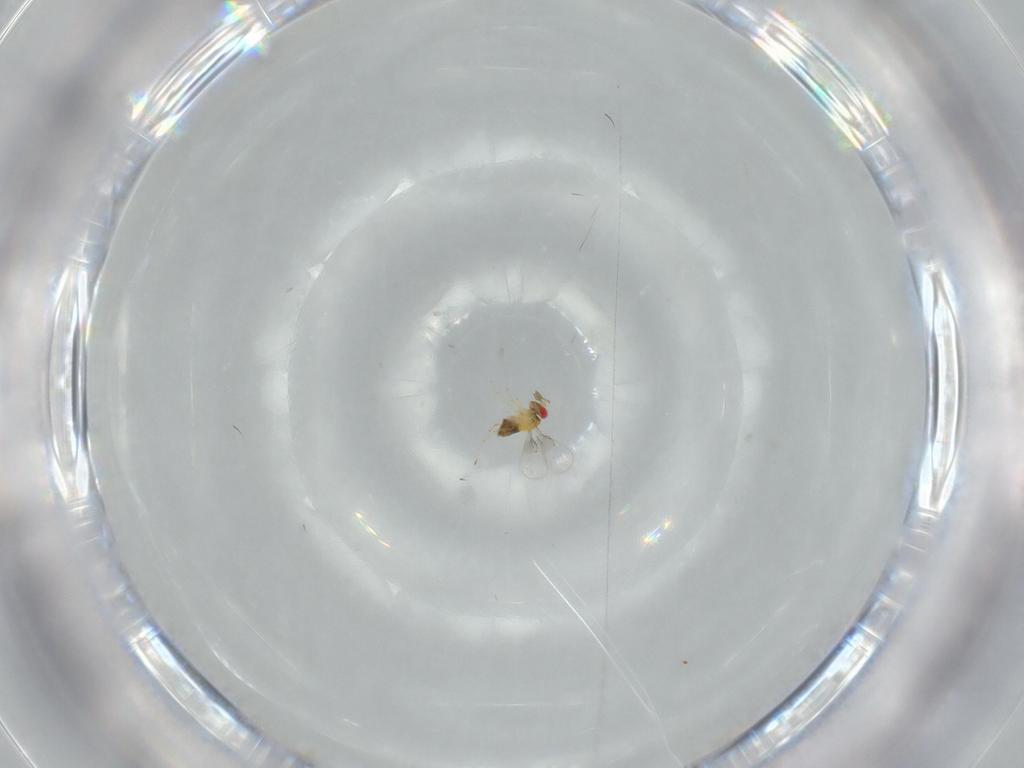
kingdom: Animalia
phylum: Arthropoda
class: Insecta
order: Hymenoptera
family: Trichogrammatidae
